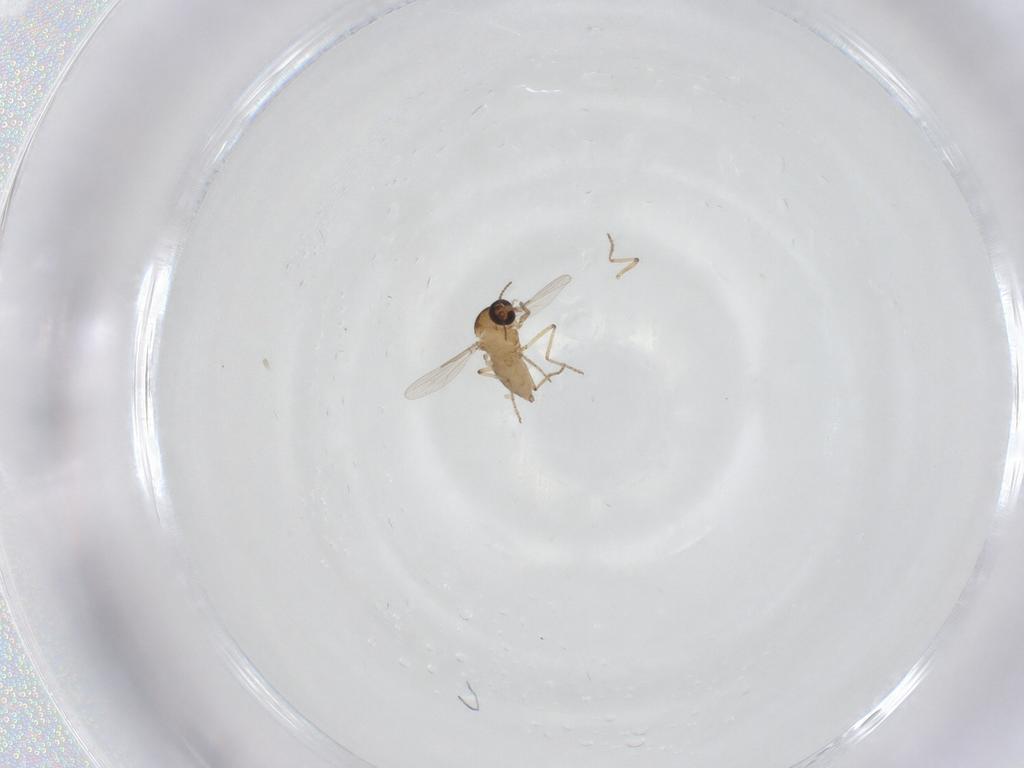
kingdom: Animalia
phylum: Arthropoda
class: Insecta
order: Diptera
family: Ceratopogonidae
